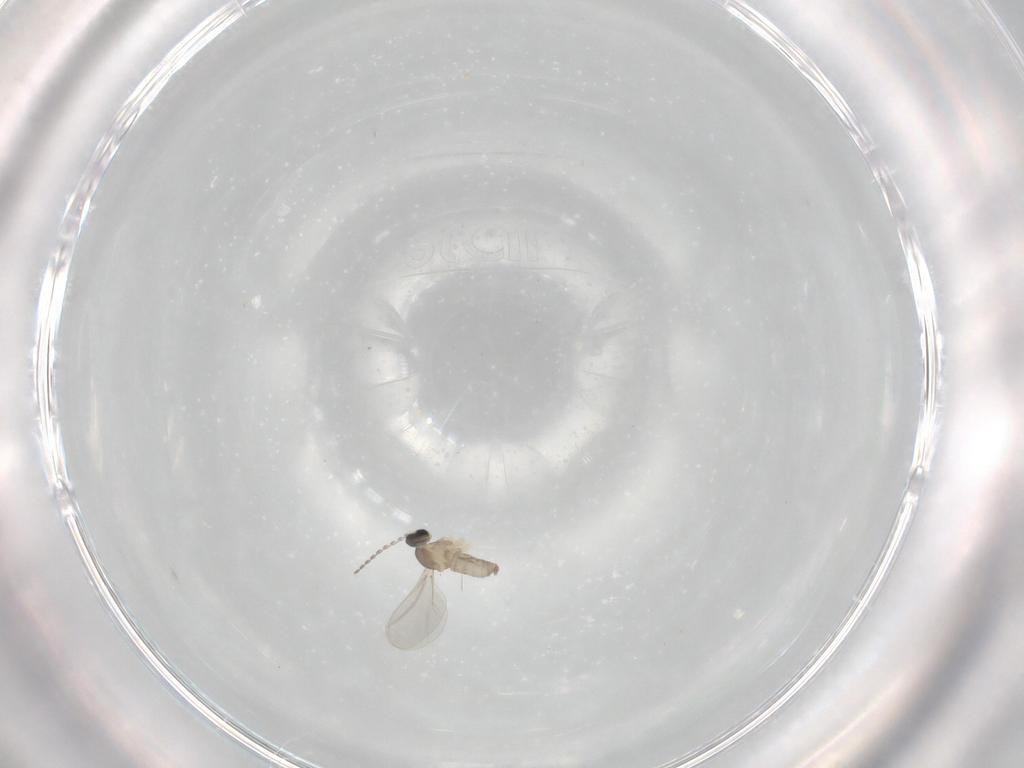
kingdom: Animalia
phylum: Arthropoda
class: Insecta
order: Diptera
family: Cecidomyiidae
